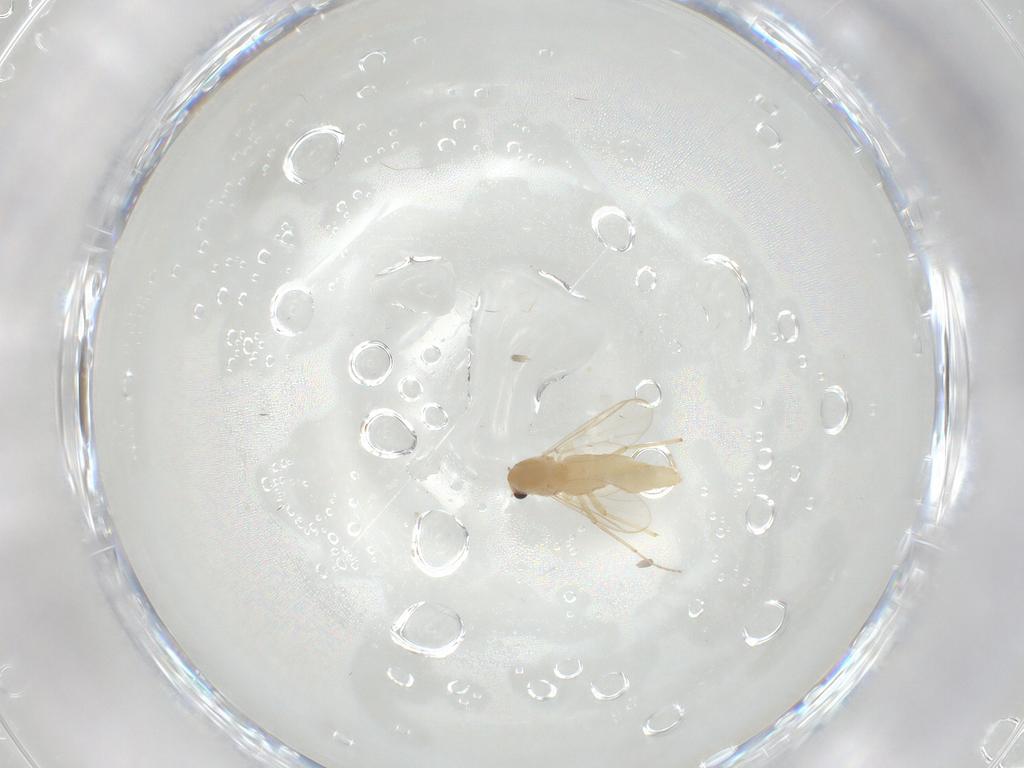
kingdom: Animalia
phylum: Arthropoda
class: Insecta
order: Diptera
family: Chironomidae
